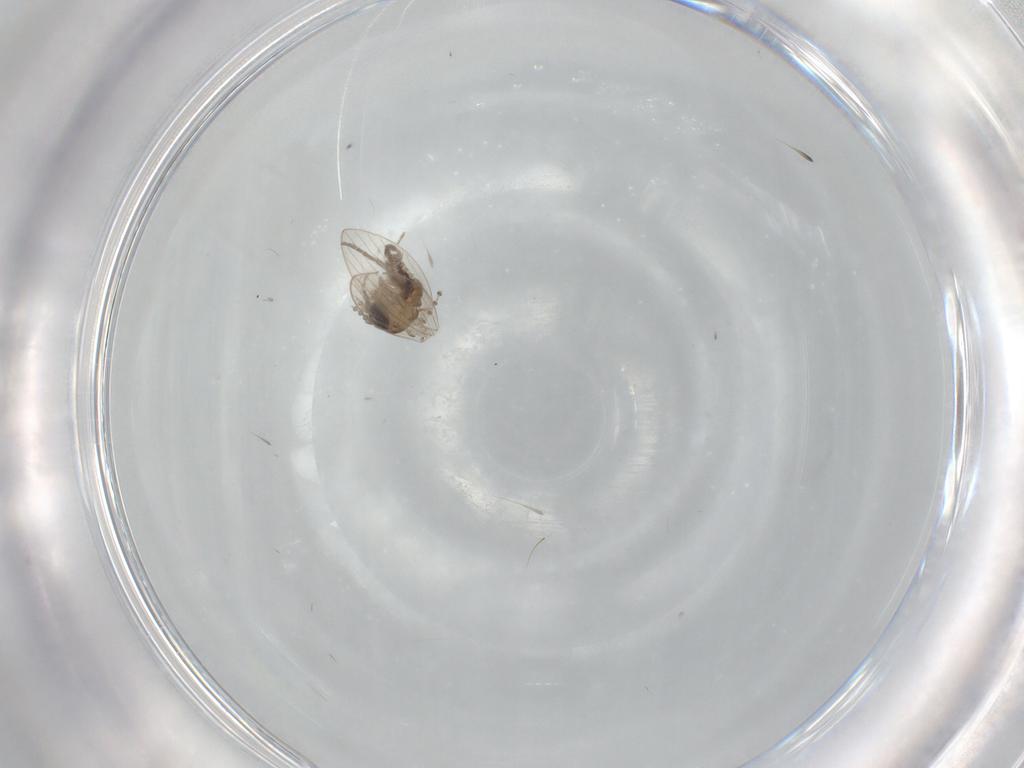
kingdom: Animalia
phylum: Arthropoda
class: Insecta
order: Diptera
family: Psychodidae
